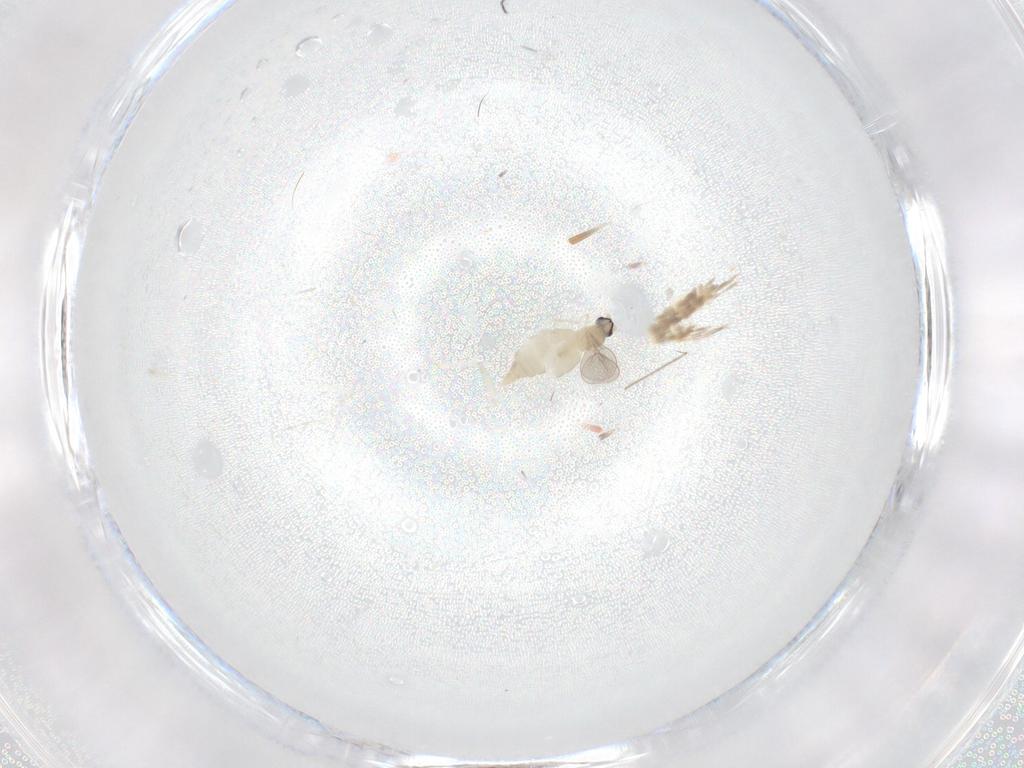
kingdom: Animalia
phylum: Arthropoda
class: Insecta
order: Diptera
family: Cecidomyiidae
